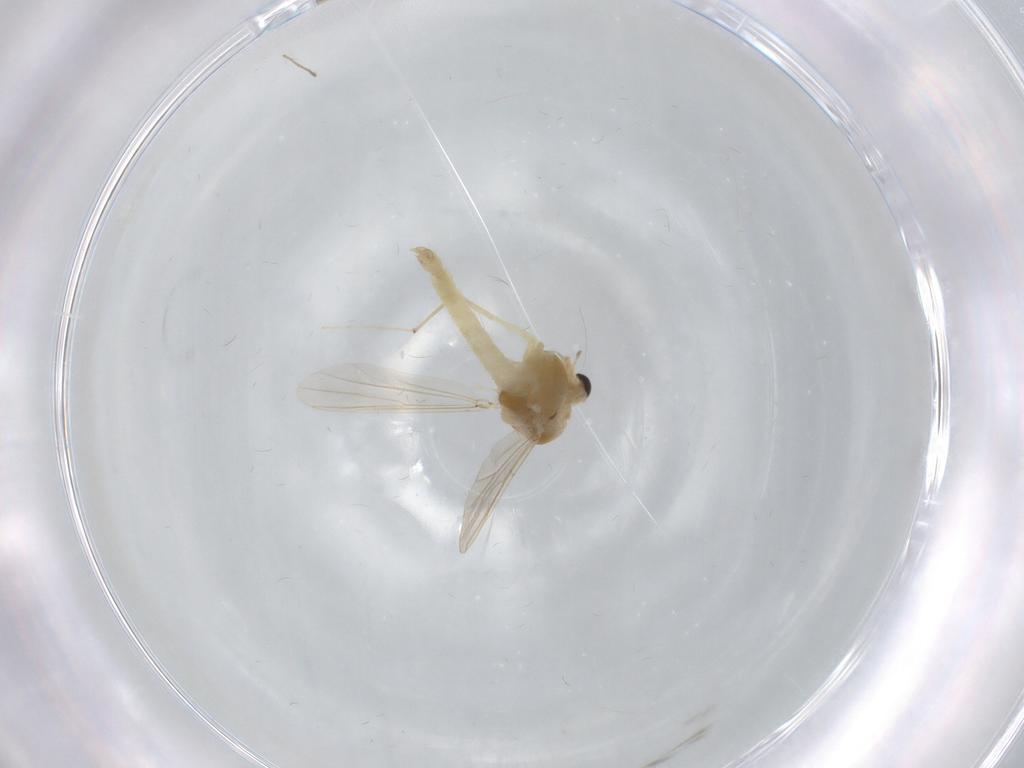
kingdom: Animalia
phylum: Arthropoda
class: Insecta
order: Diptera
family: Chironomidae
